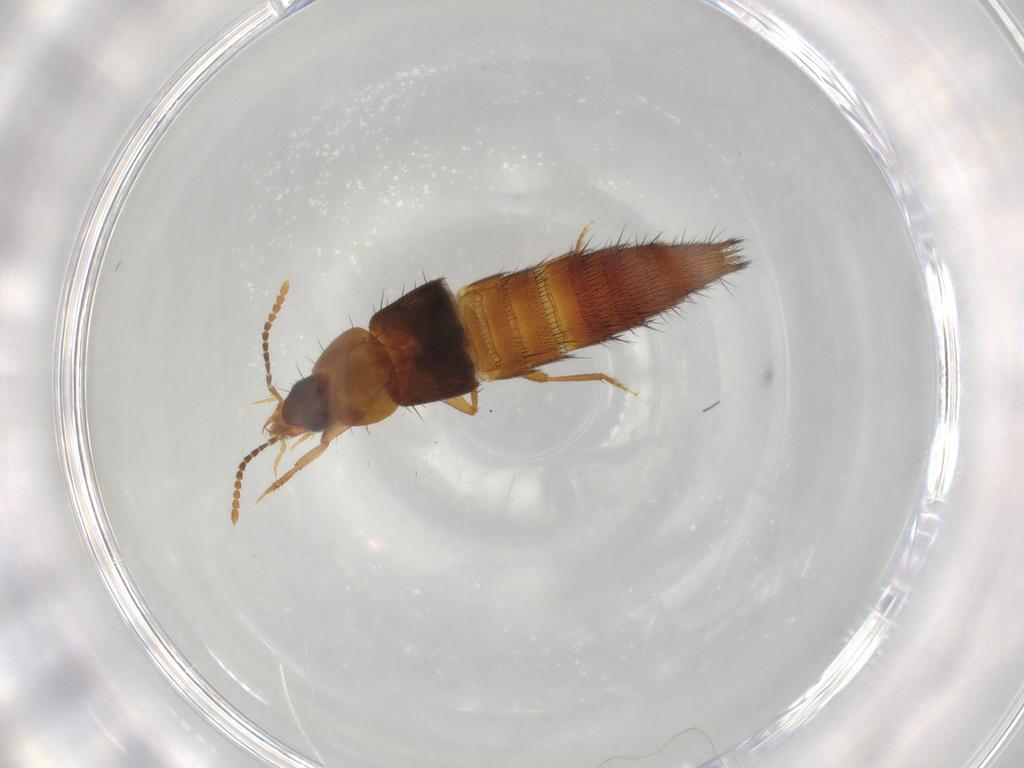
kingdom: Animalia
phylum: Arthropoda
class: Insecta
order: Coleoptera
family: Staphylinidae
